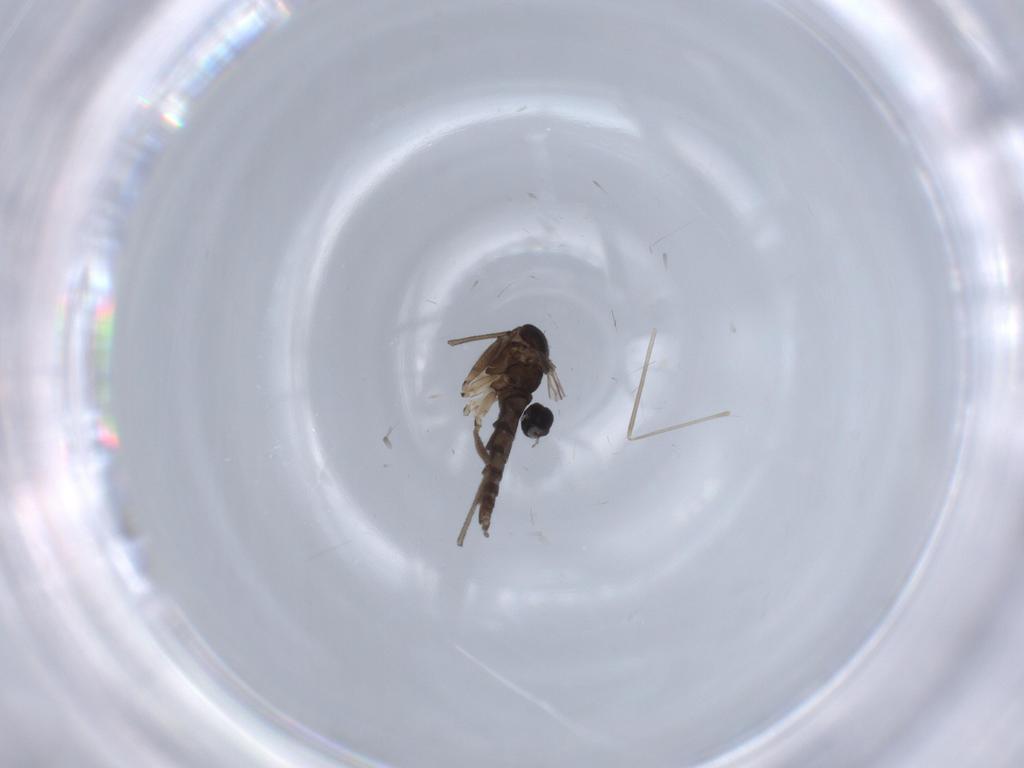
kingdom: Animalia
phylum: Arthropoda
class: Insecta
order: Diptera
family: Sciaridae
